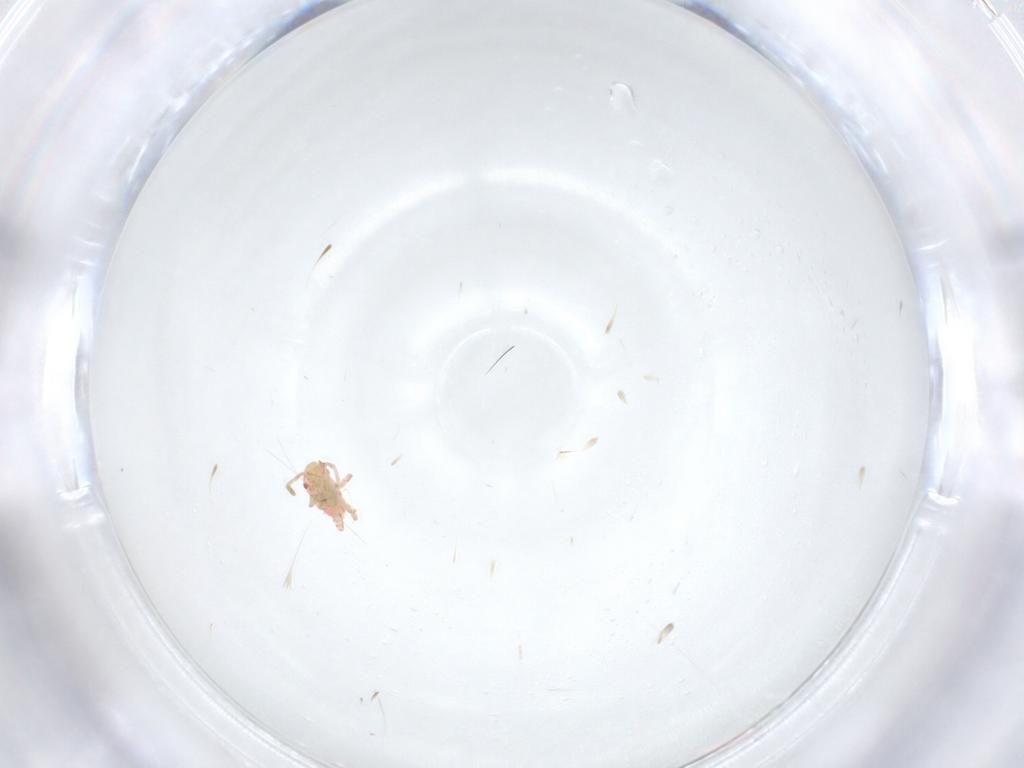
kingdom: Animalia
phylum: Arthropoda
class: Insecta
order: Hemiptera
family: Miridae
